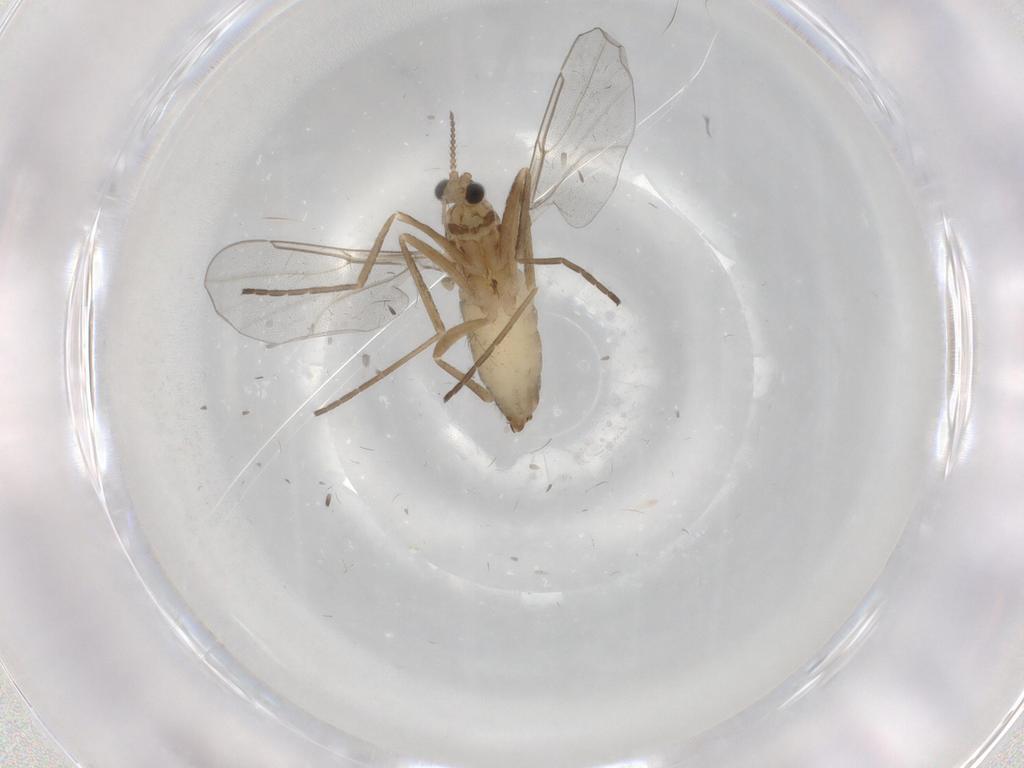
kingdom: Animalia
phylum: Arthropoda
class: Insecta
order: Diptera
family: Cecidomyiidae
